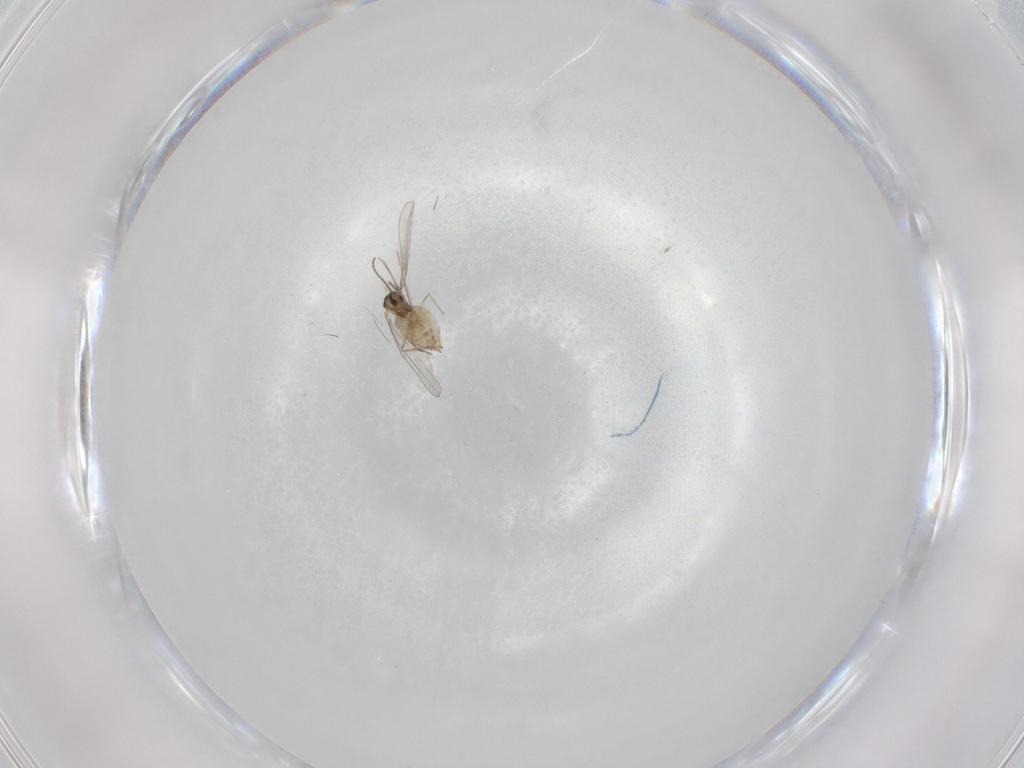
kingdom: Animalia
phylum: Arthropoda
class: Insecta
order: Diptera
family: Cecidomyiidae
